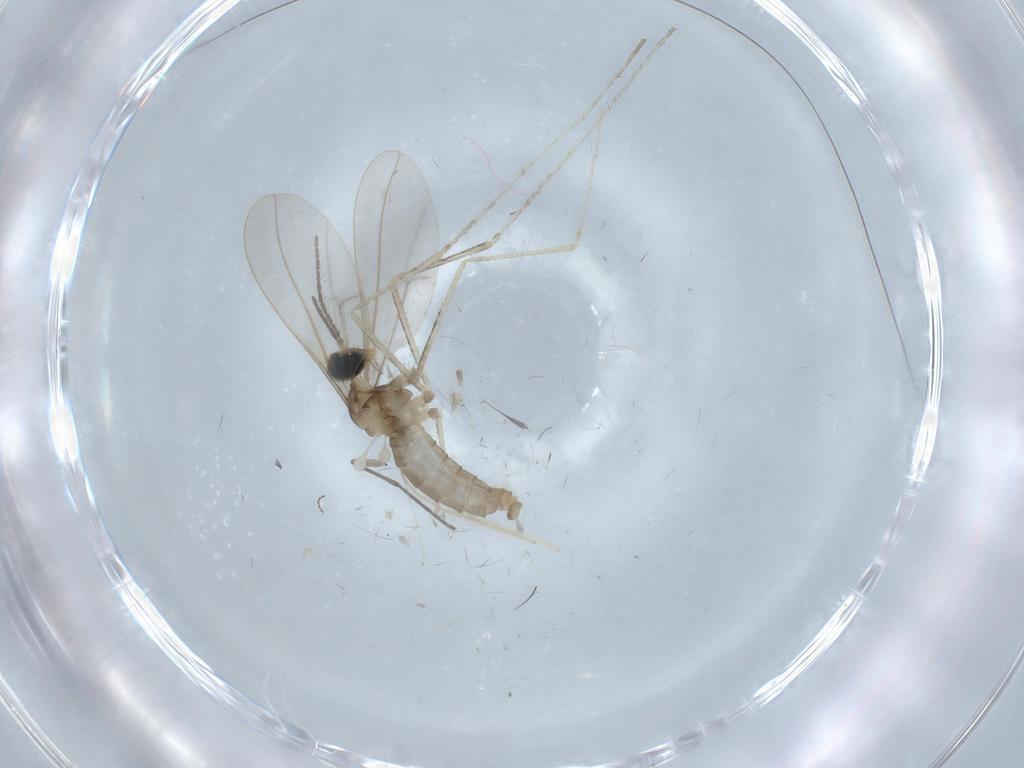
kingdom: Animalia
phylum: Arthropoda
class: Insecta
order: Diptera
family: Cecidomyiidae
